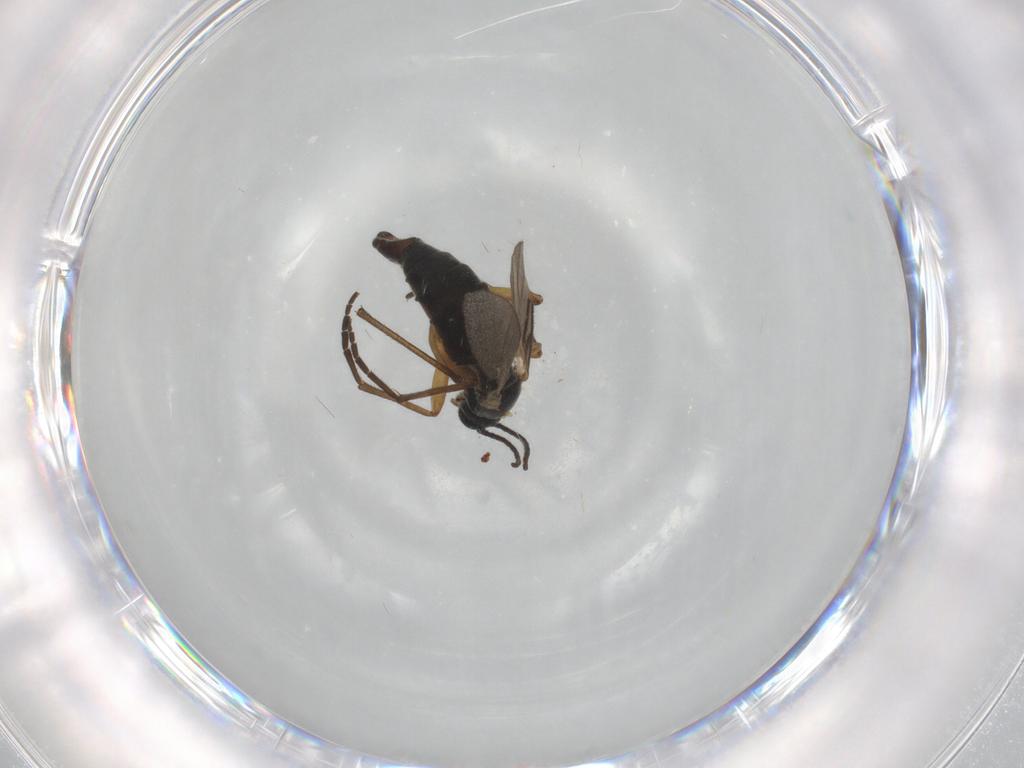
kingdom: Animalia
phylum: Arthropoda
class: Insecta
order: Diptera
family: Sciaridae
